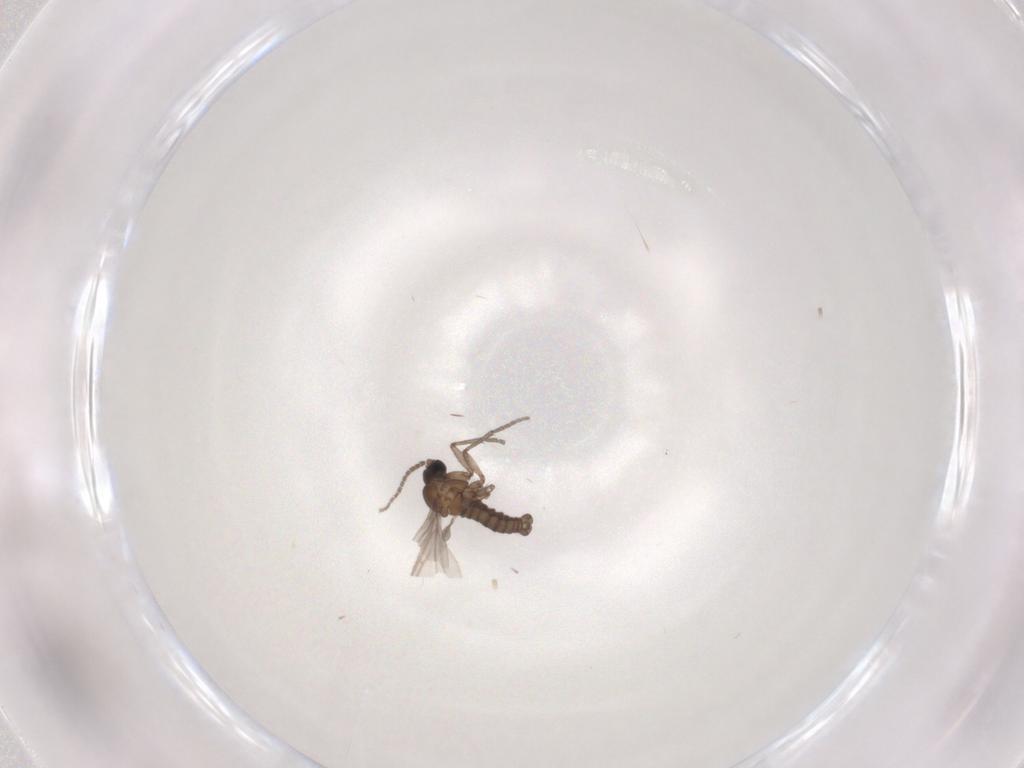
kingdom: Animalia
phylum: Arthropoda
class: Insecta
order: Diptera
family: Sciaridae
